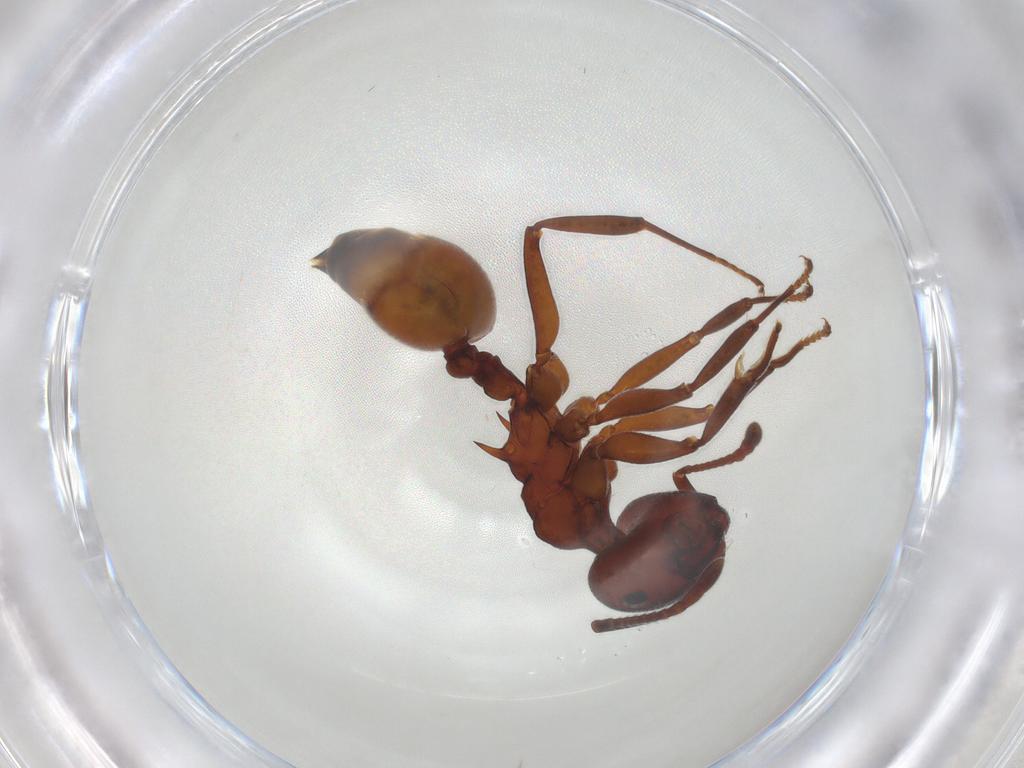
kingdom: Animalia
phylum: Arthropoda
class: Insecta
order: Hymenoptera
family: Formicidae
